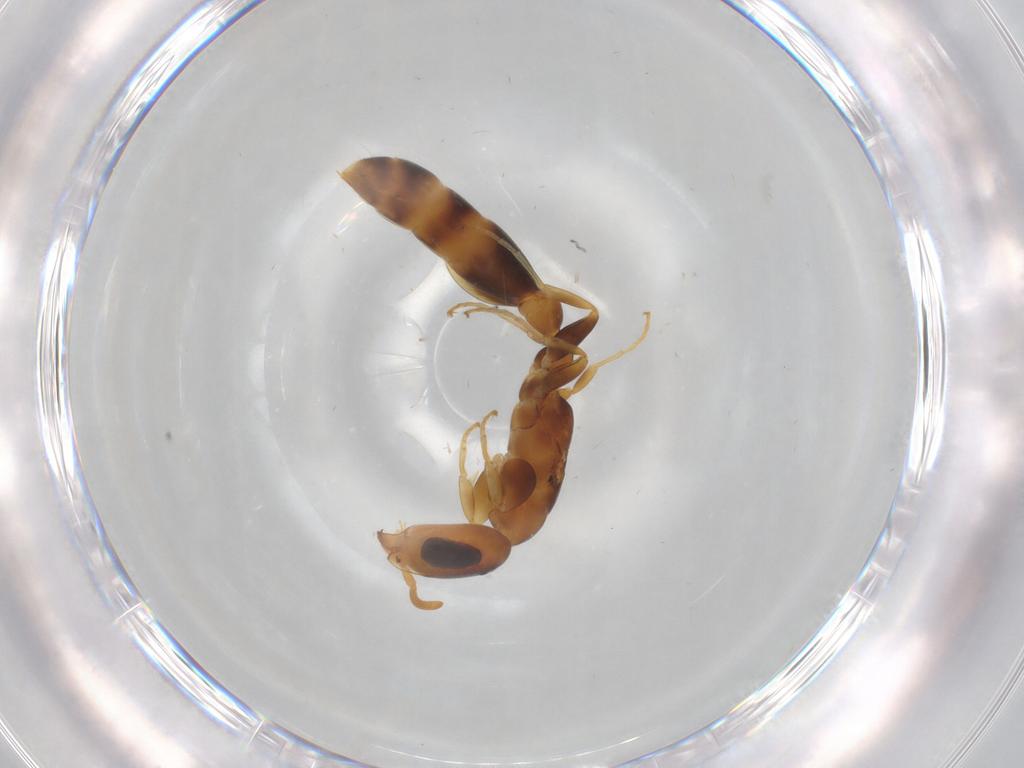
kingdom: Animalia
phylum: Arthropoda
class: Insecta
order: Hymenoptera
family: Formicidae
